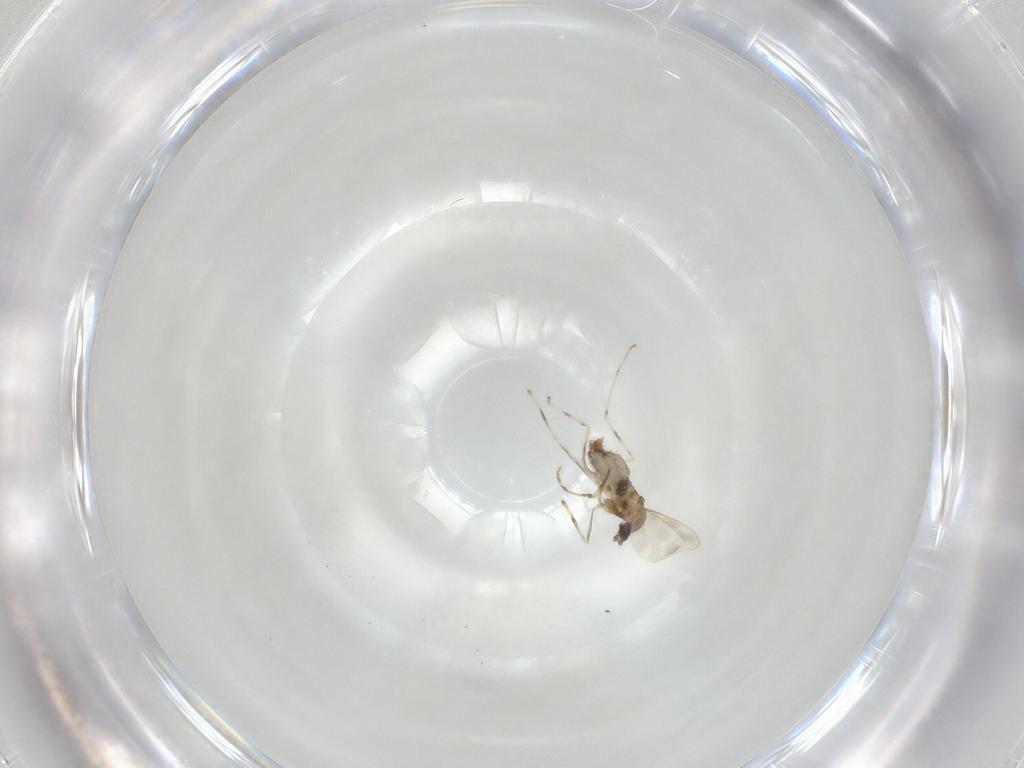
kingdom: Animalia
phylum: Arthropoda
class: Insecta
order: Diptera
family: Cecidomyiidae
